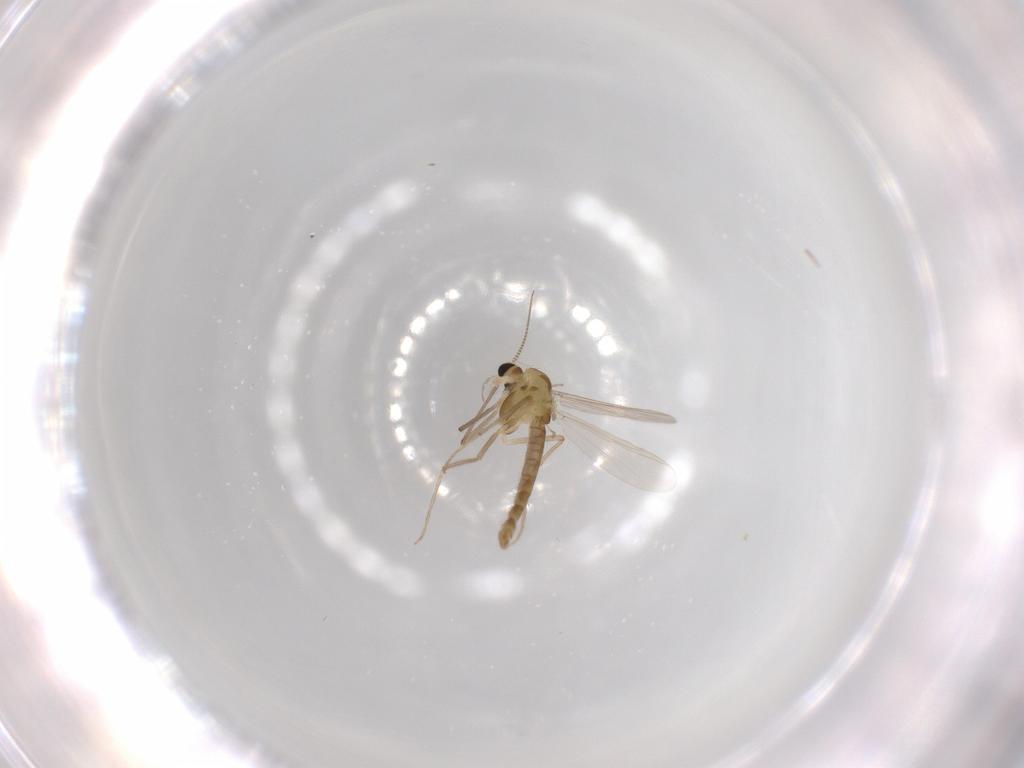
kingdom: Animalia
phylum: Arthropoda
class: Insecta
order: Diptera
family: Chironomidae
